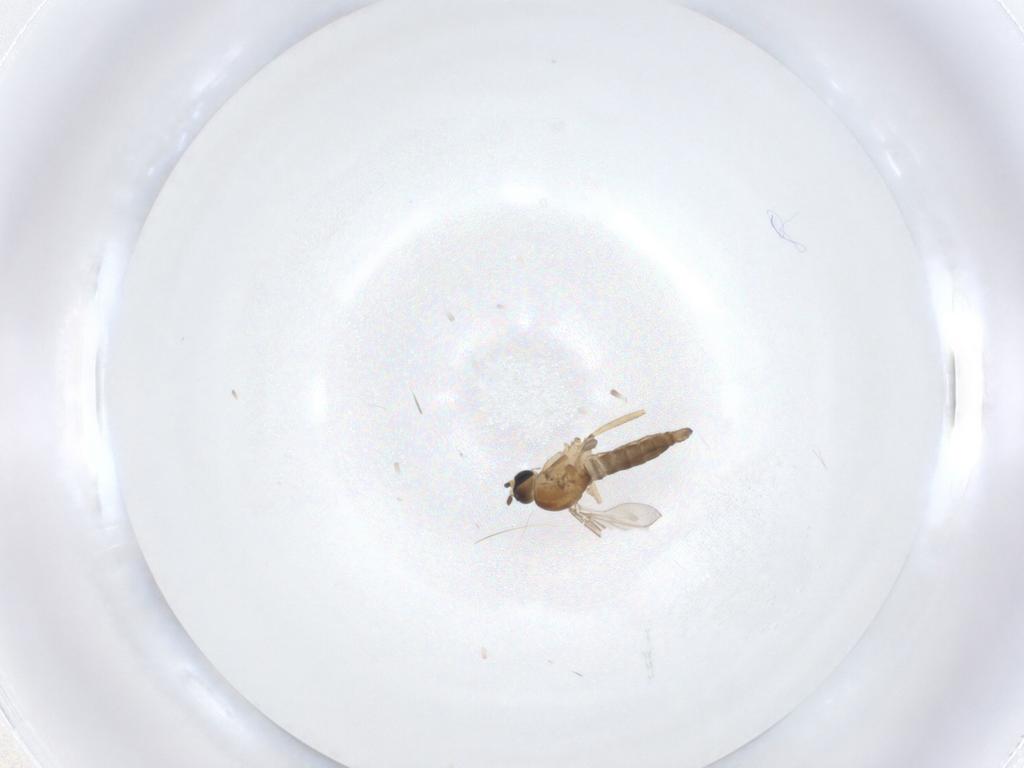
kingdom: Animalia
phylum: Arthropoda
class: Insecta
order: Diptera
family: Sciaridae
